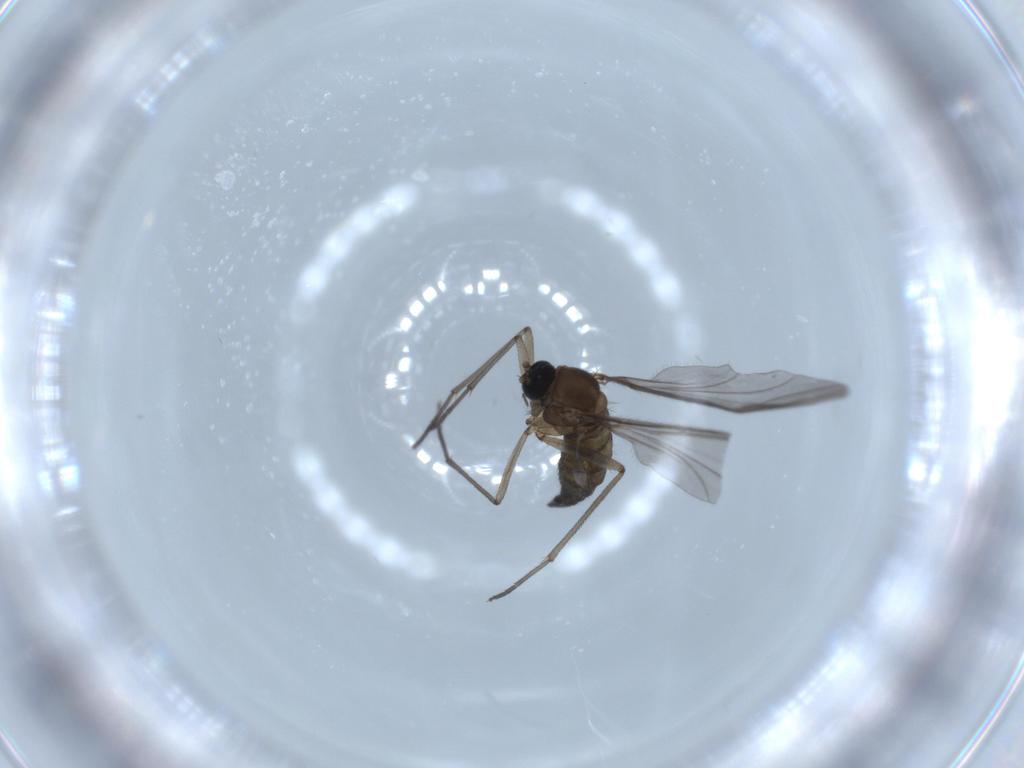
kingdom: Animalia
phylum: Arthropoda
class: Insecta
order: Diptera
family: Sciaridae
